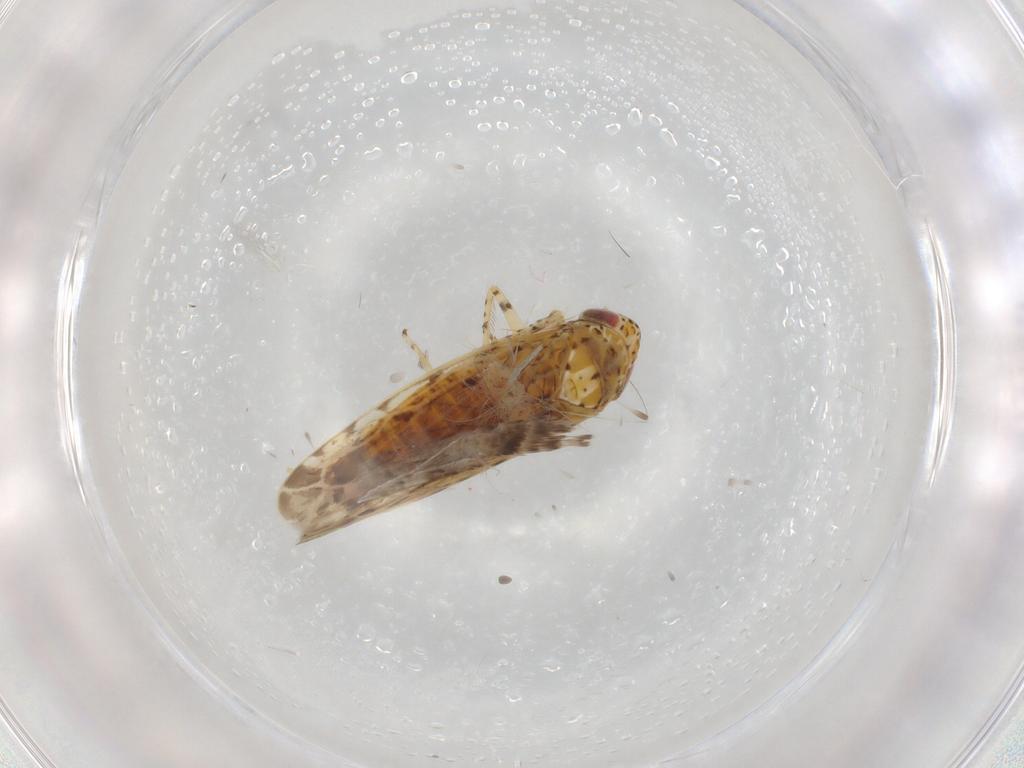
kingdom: Animalia
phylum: Arthropoda
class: Insecta
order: Hemiptera
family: Cicadellidae
